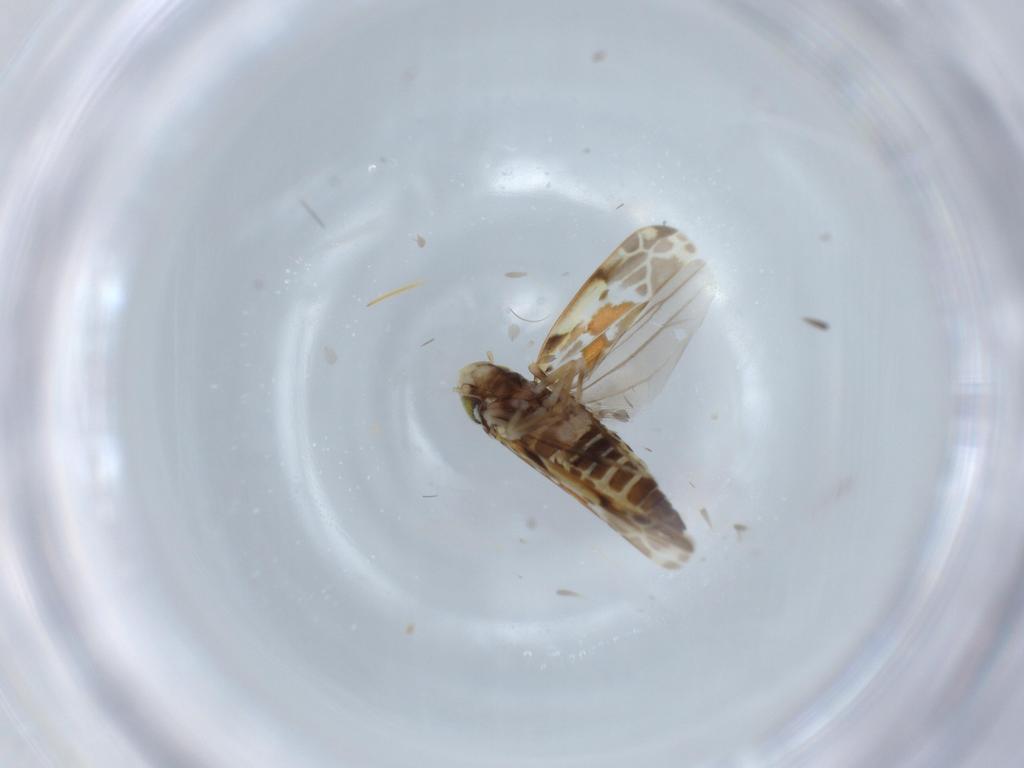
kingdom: Animalia
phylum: Arthropoda
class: Insecta
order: Hemiptera
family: Cicadellidae
